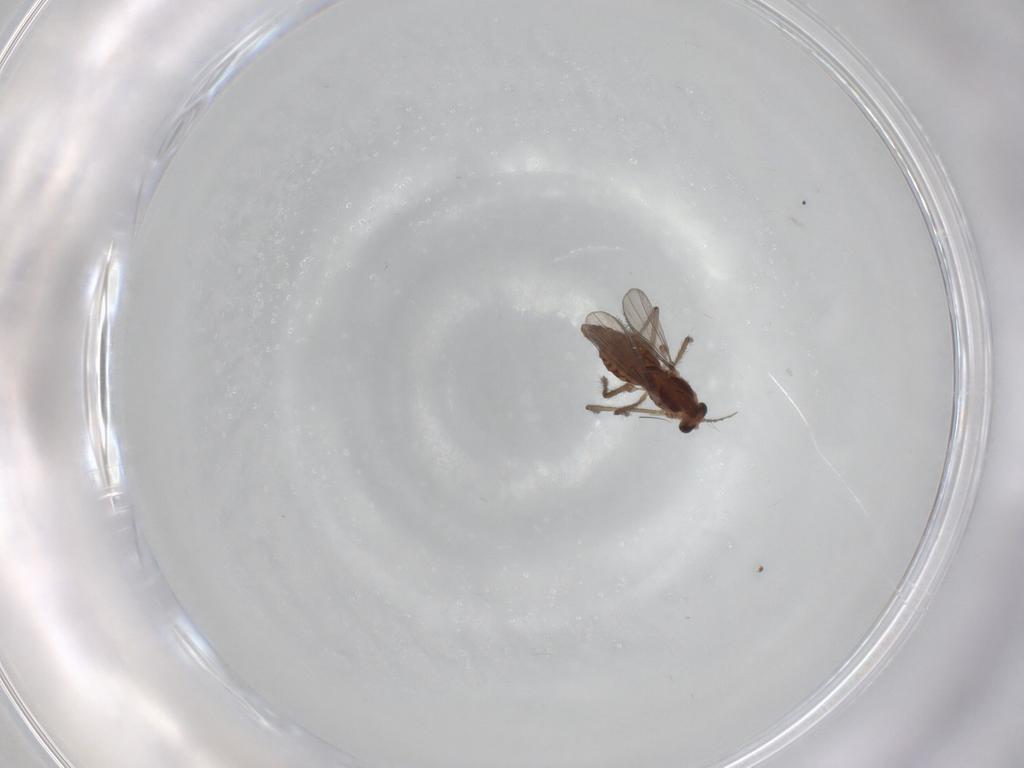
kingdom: Animalia
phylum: Arthropoda
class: Insecta
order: Diptera
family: Chironomidae
